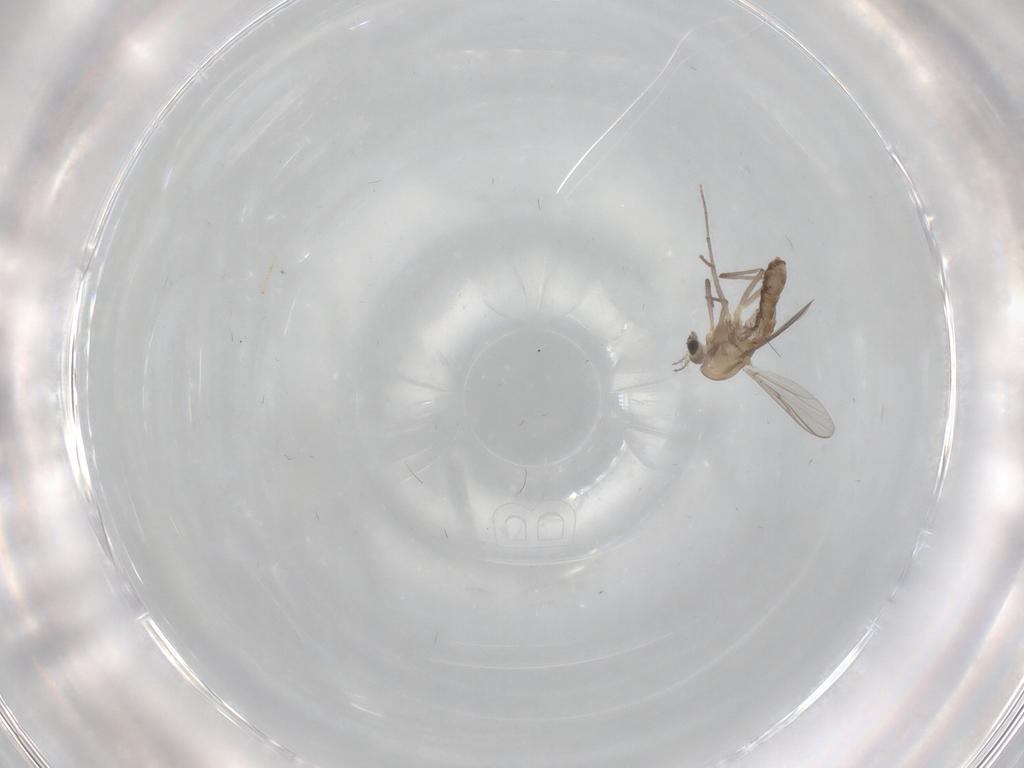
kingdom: Animalia
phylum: Arthropoda
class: Insecta
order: Diptera
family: Chironomidae
